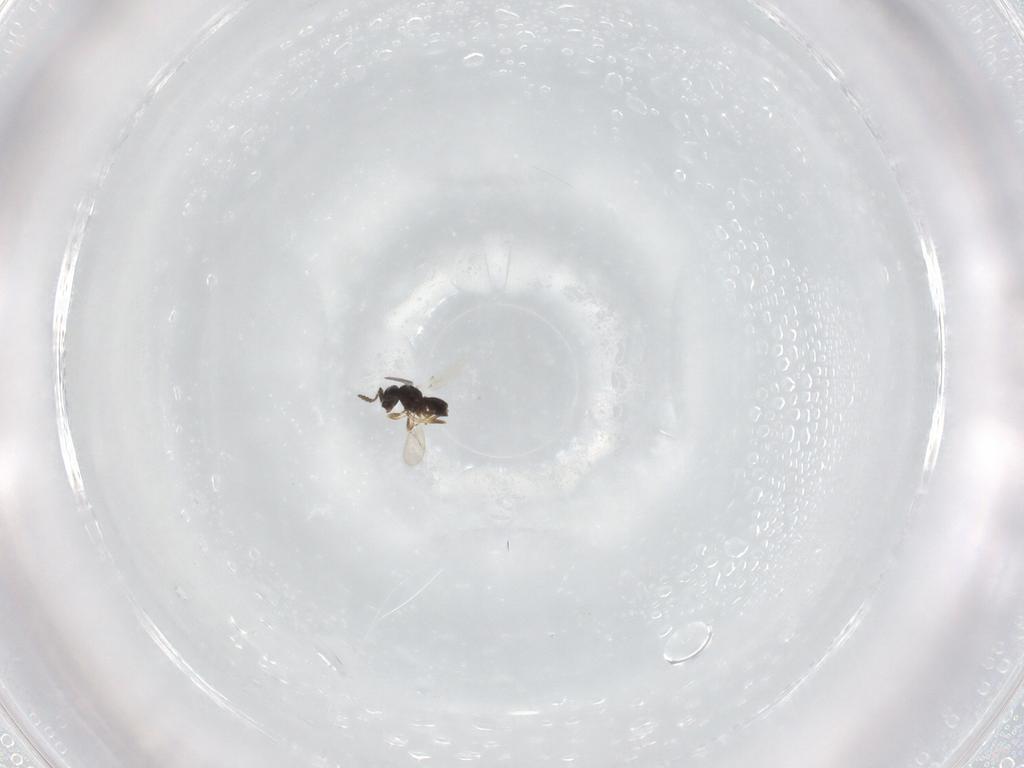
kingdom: Animalia
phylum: Arthropoda
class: Insecta
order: Hymenoptera
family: Scelionidae
